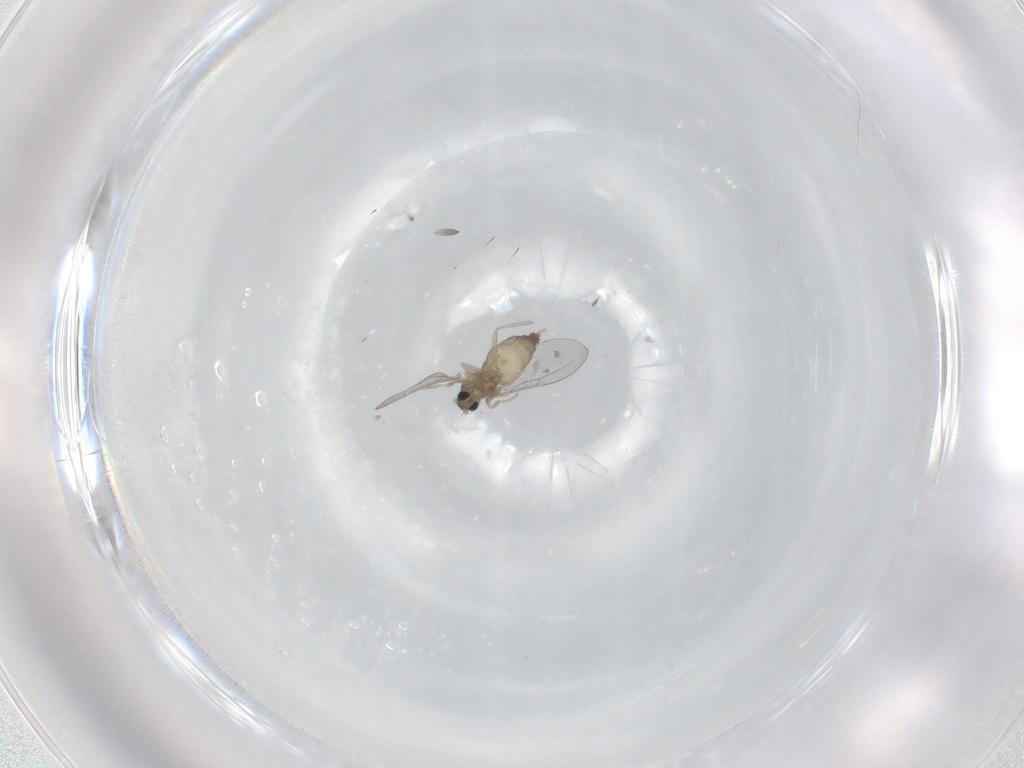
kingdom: Animalia
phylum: Arthropoda
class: Insecta
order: Diptera
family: Cecidomyiidae
